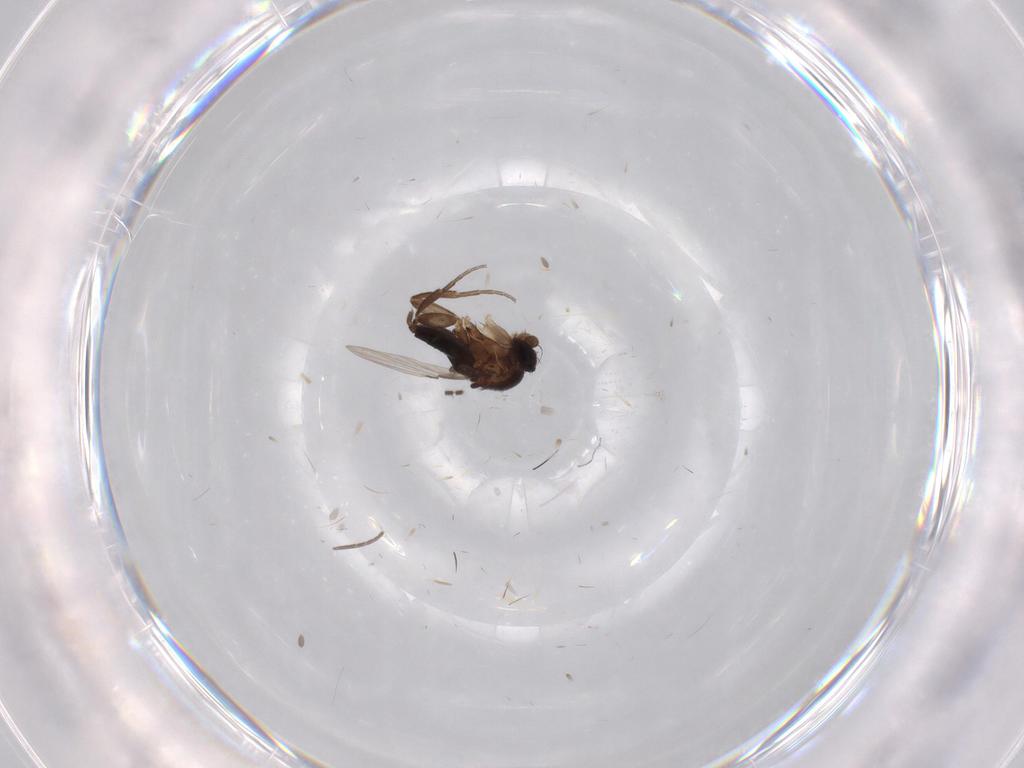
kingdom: Animalia
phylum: Arthropoda
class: Insecta
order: Diptera
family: Phoridae
